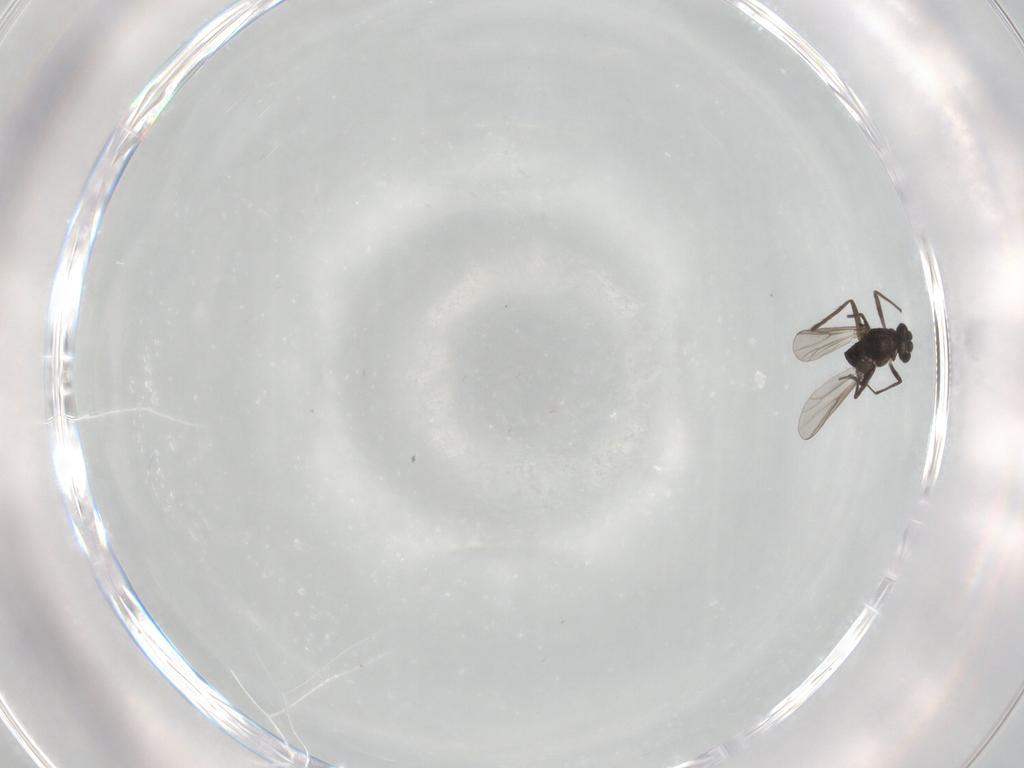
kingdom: Animalia
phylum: Arthropoda
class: Insecta
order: Diptera
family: Chironomidae
